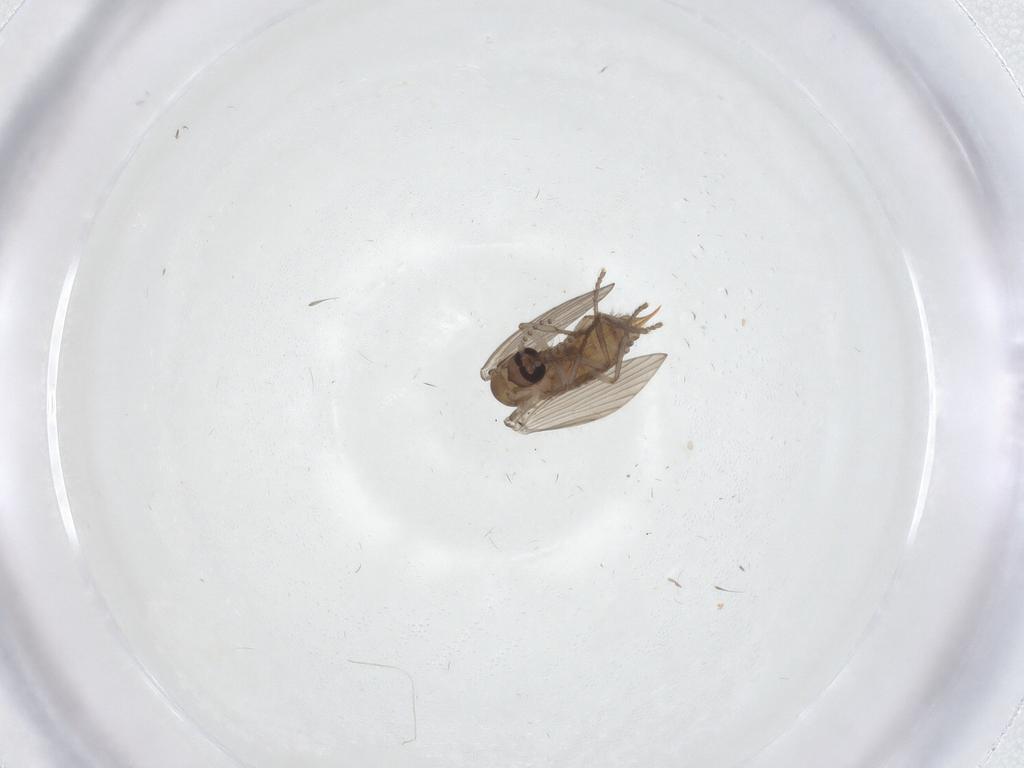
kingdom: Animalia
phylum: Arthropoda
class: Insecta
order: Diptera
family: Psychodidae
